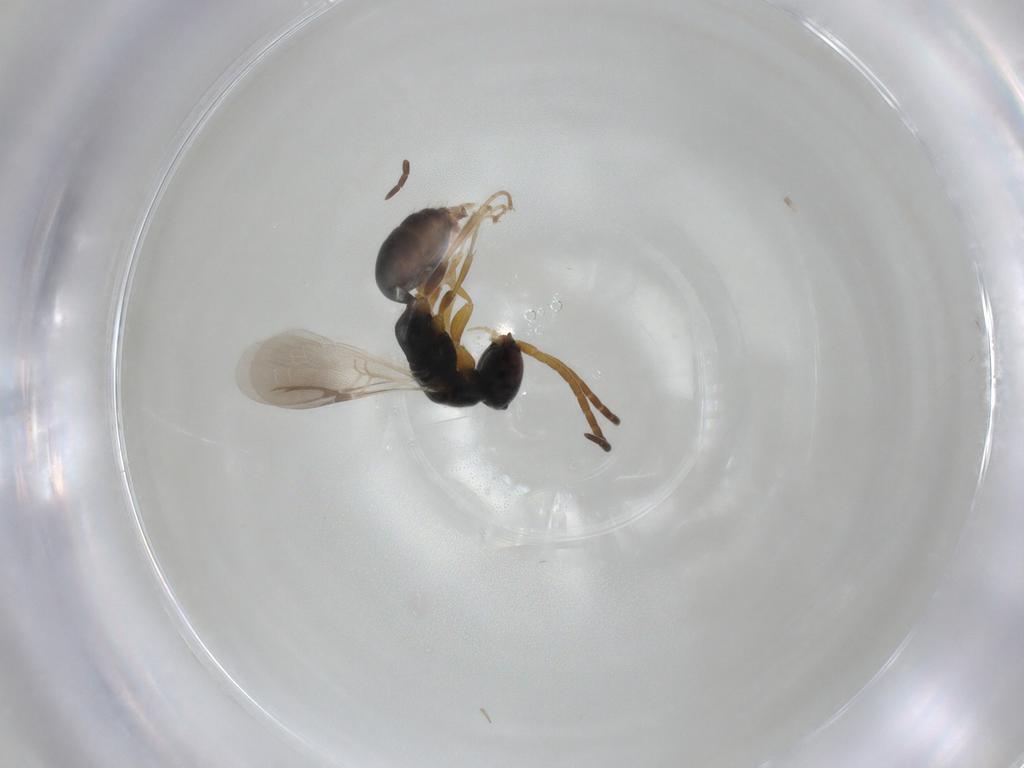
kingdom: Animalia
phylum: Arthropoda
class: Insecta
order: Hymenoptera
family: Bethylidae
